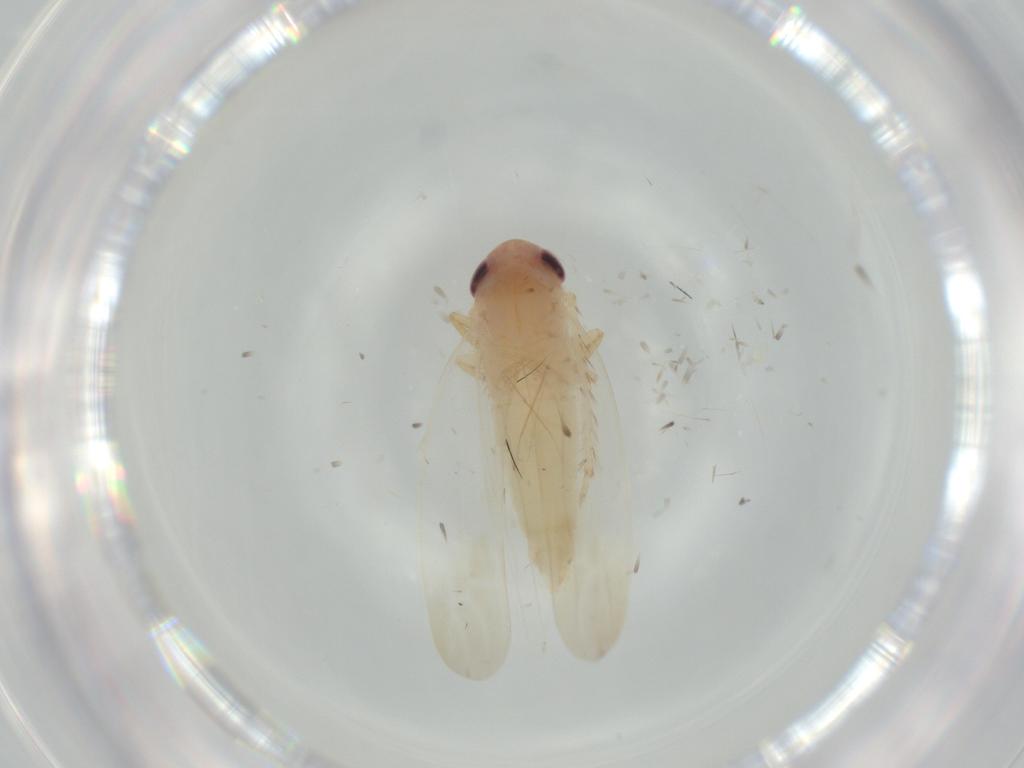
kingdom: Animalia
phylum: Arthropoda
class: Insecta
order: Hemiptera
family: Cicadellidae
